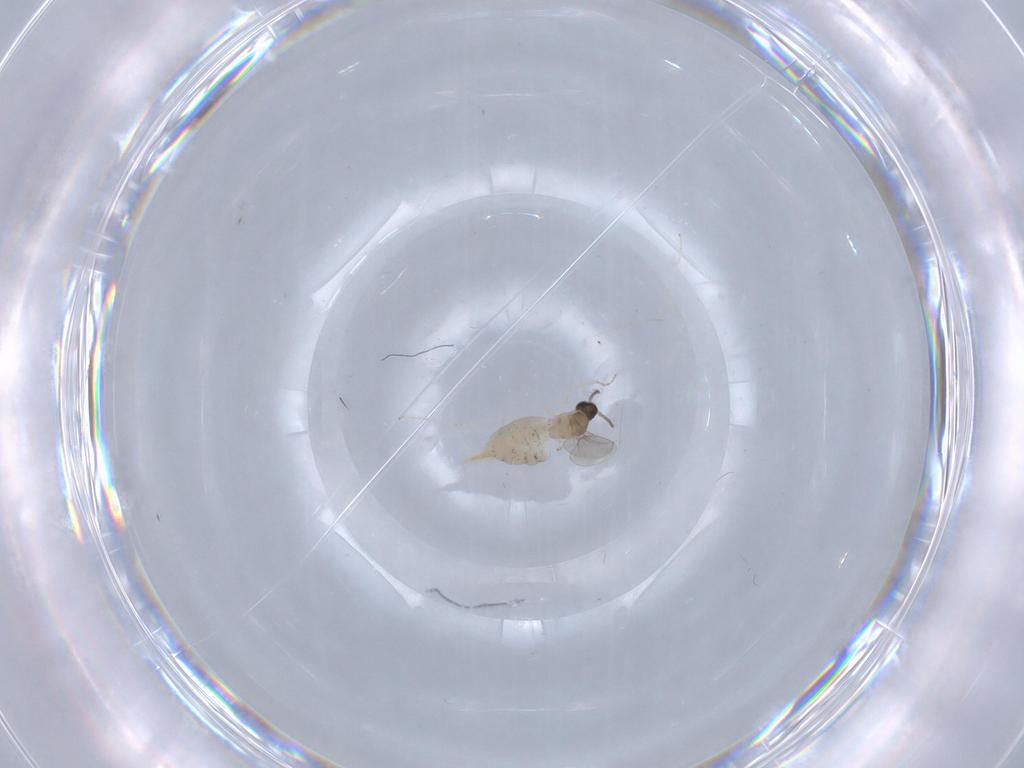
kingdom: Animalia
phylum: Arthropoda
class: Insecta
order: Diptera
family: Cecidomyiidae
